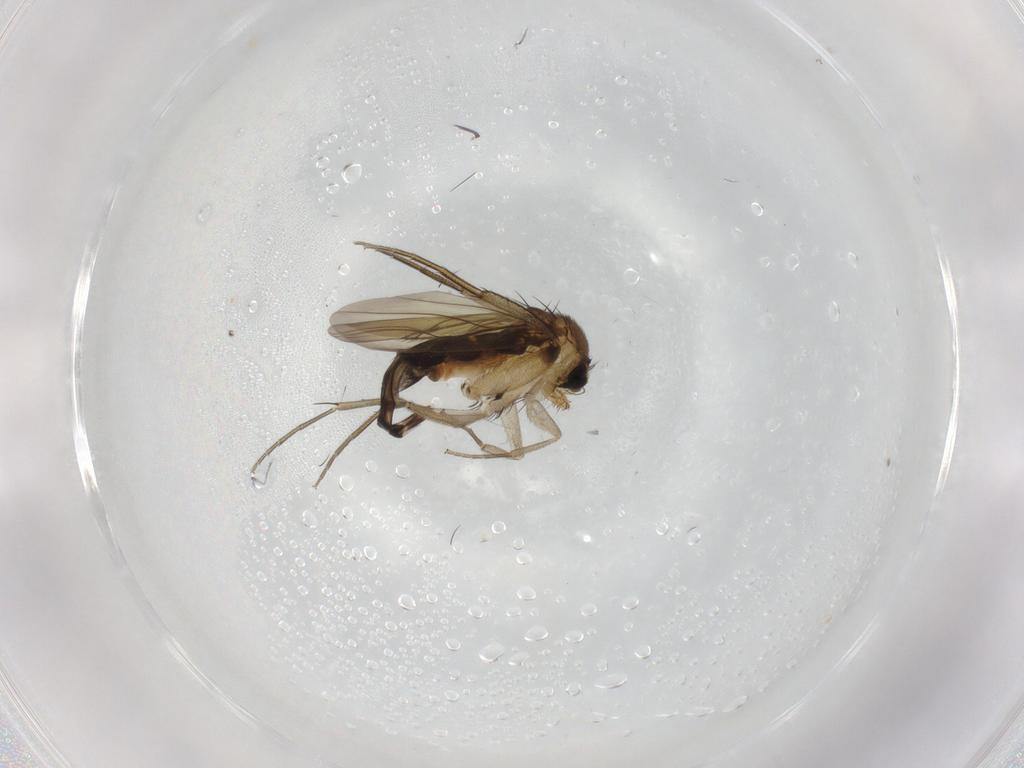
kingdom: Animalia
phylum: Arthropoda
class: Insecta
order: Diptera
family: Phoridae
